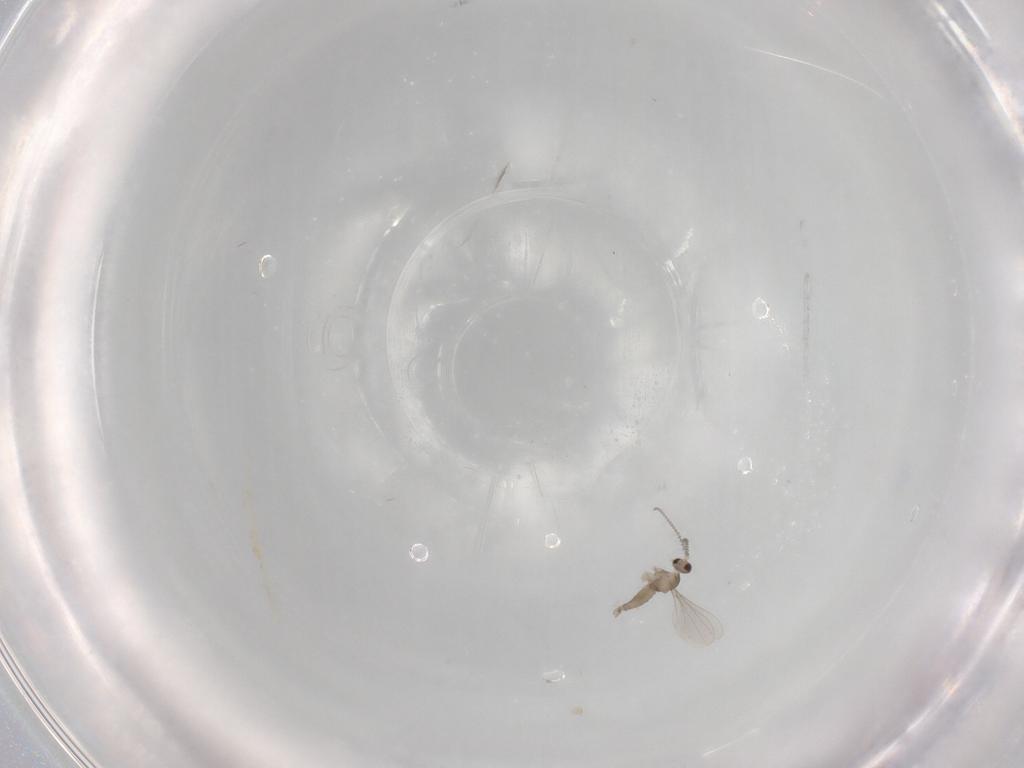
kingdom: Animalia
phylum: Arthropoda
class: Insecta
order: Diptera
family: Cecidomyiidae
